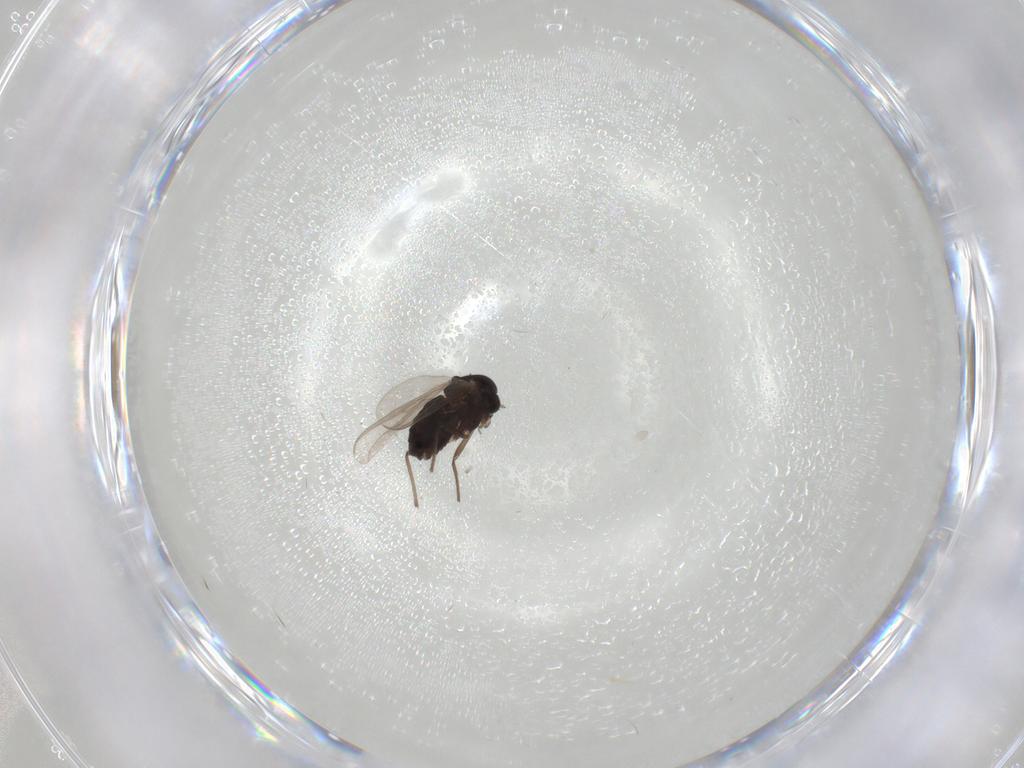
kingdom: Animalia
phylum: Arthropoda
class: Insecta
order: Diptera
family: Chironomidae
